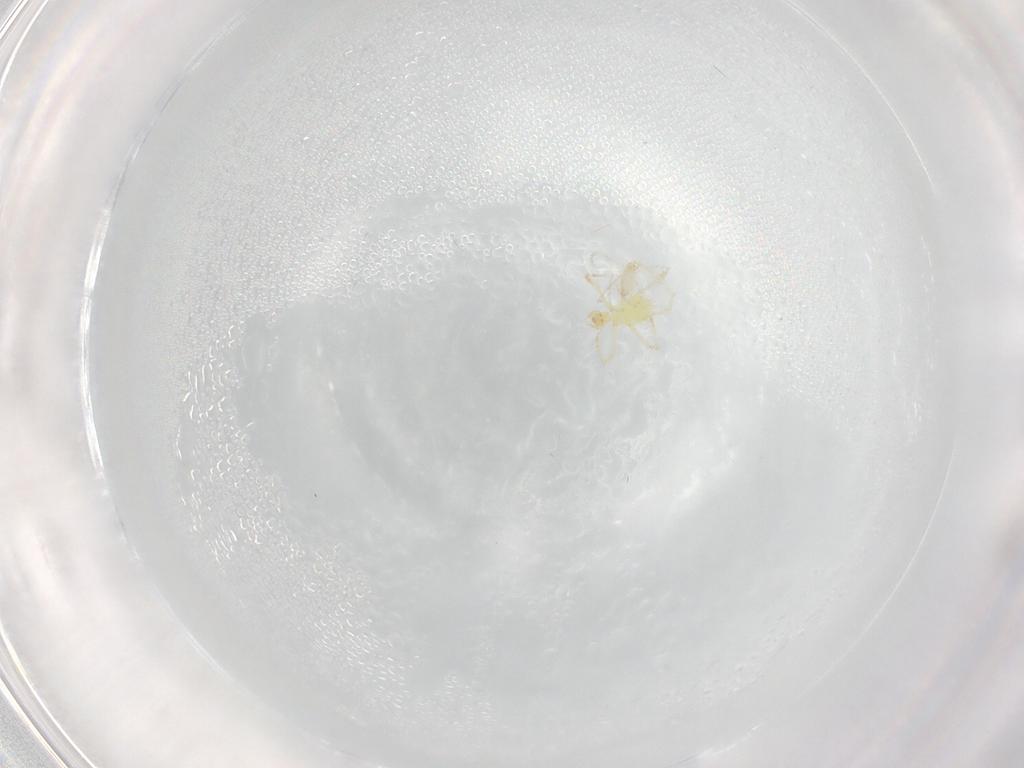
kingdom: Animalia
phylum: Arthropoda
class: Arachnida
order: Trombidiformes
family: Erythraeidae
